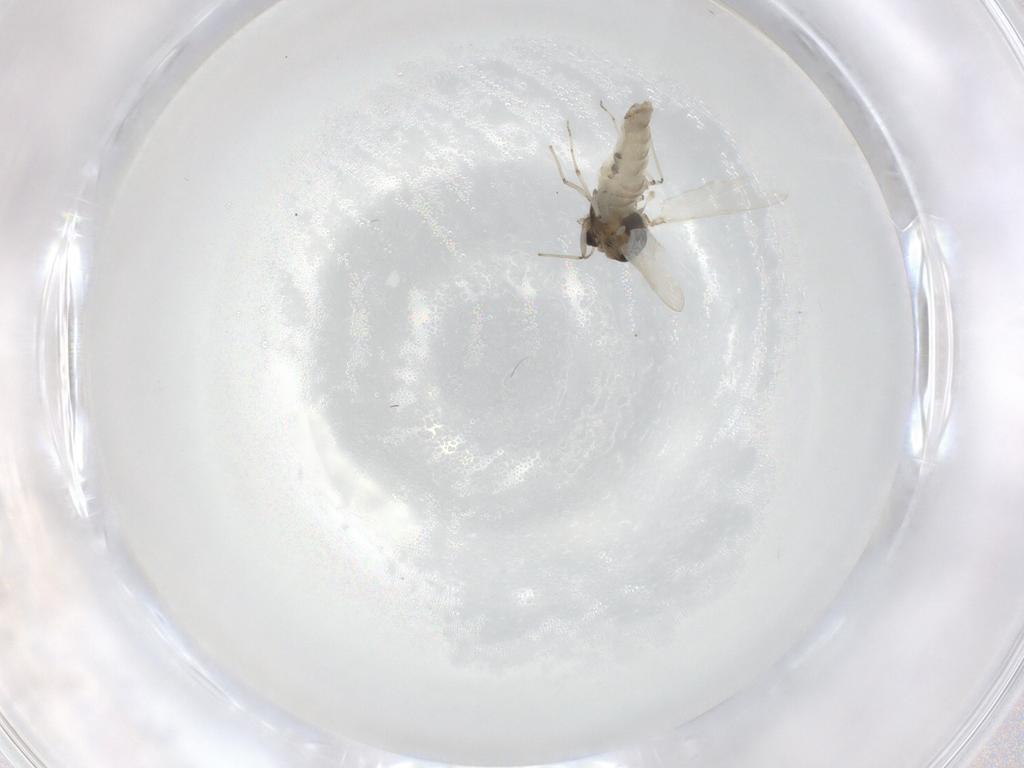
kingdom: Animalia
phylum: Arthropoda
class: Insecta
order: Diptera
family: Chironomidae
